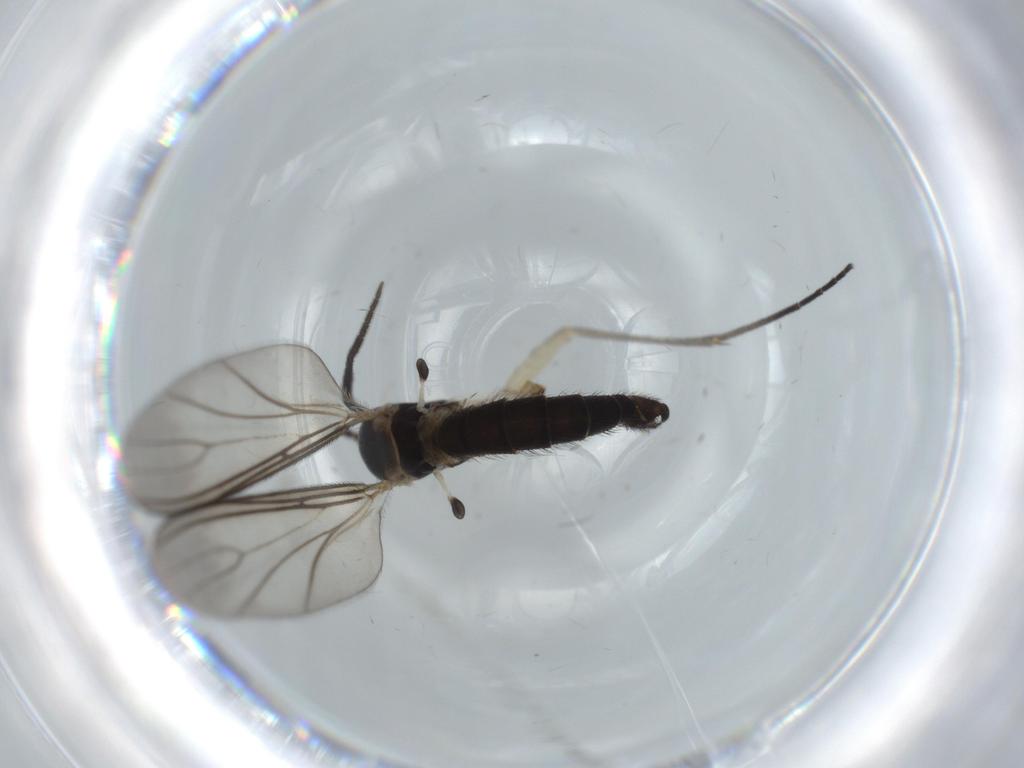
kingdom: Animalia
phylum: Arthropoda
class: Insecta
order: Diptera
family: Sciaridae
